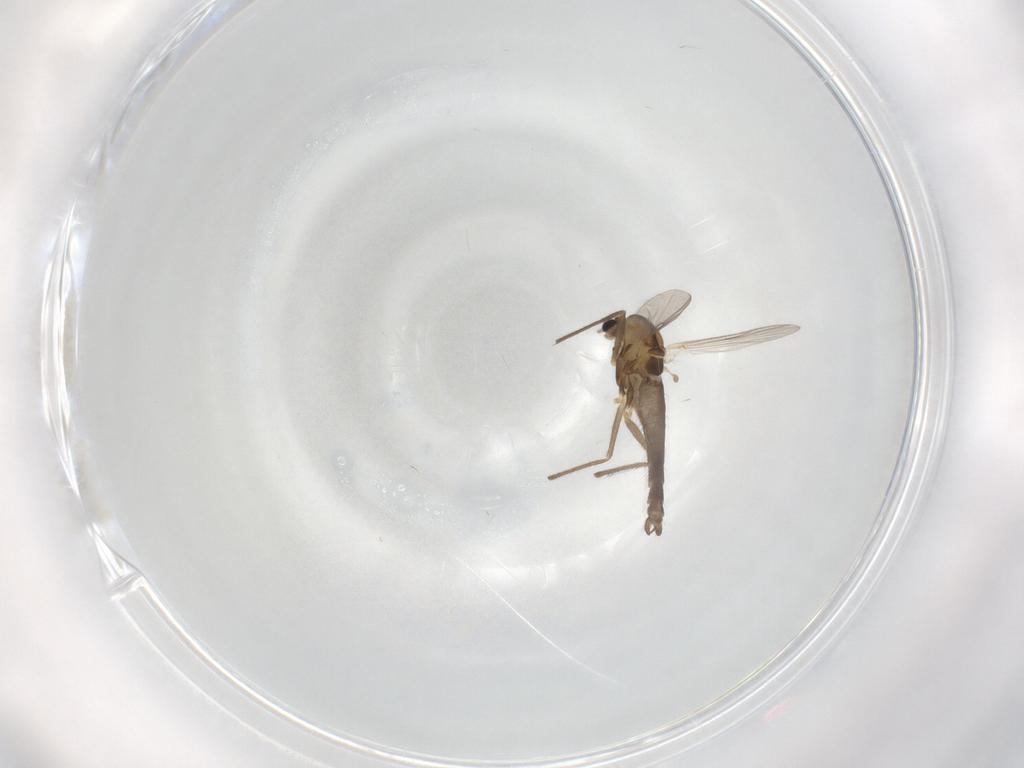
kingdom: Animalia
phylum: Arthropoda
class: Insecta
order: Diptera
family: Chironomidae
